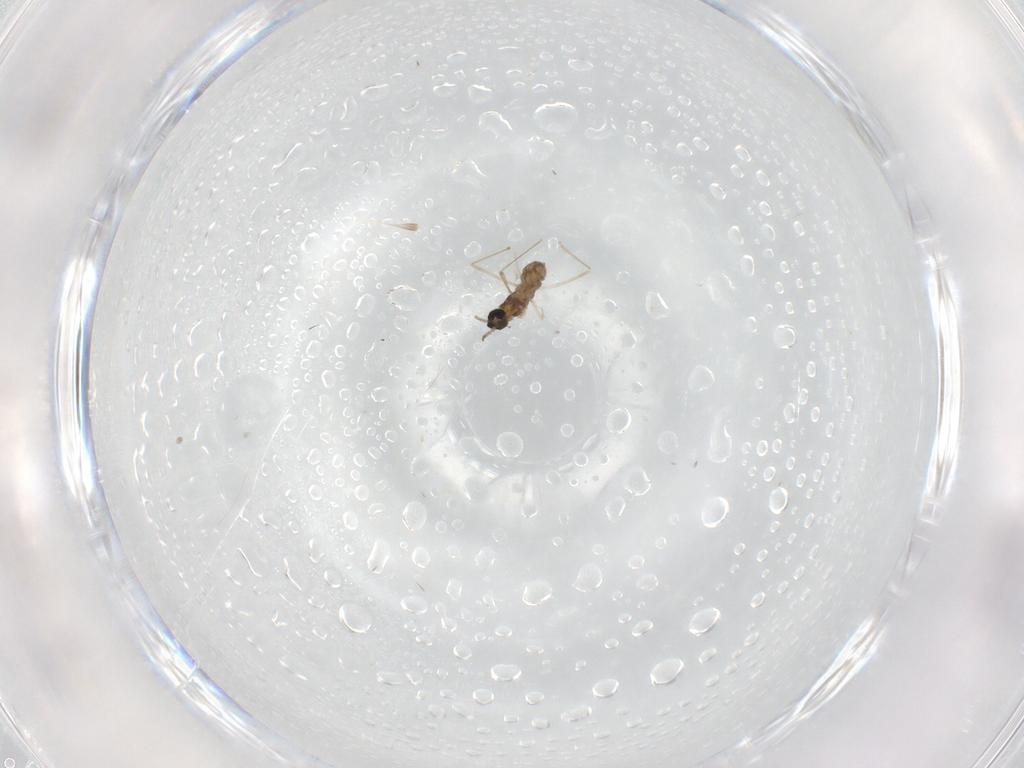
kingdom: Animalia
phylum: Arthropoda
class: Insecta
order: Diptera
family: Cecidomyiidae
